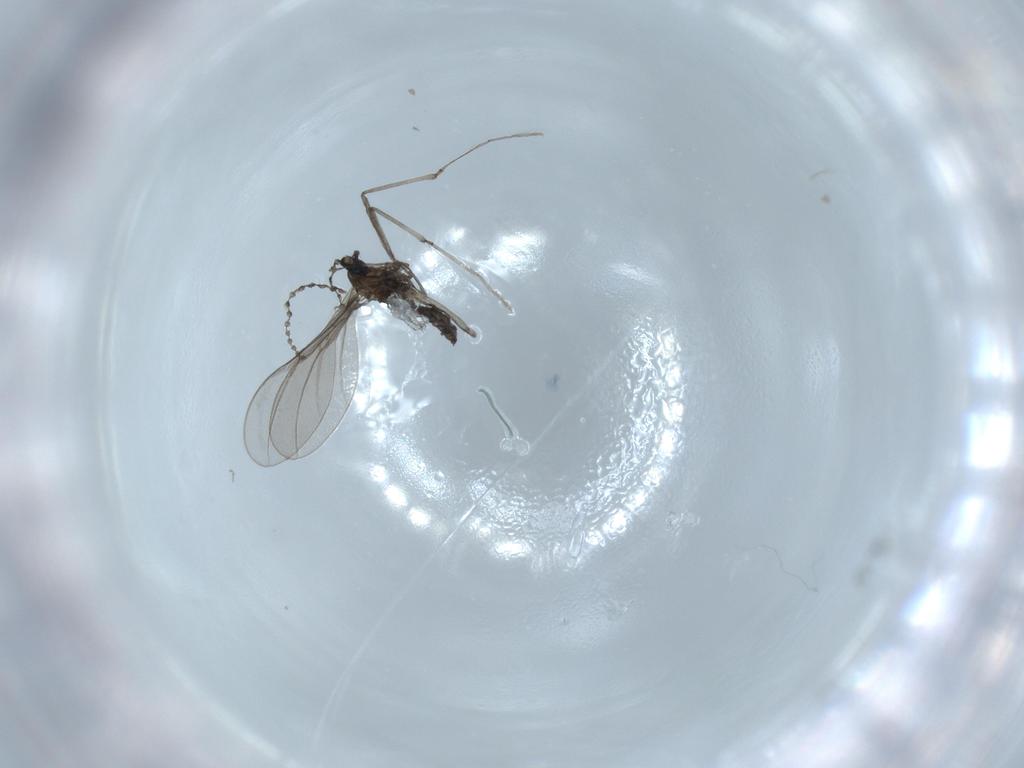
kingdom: Animalia
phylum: Arthropoda
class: Insecta
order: Diptera
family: Cecidomyiidae
